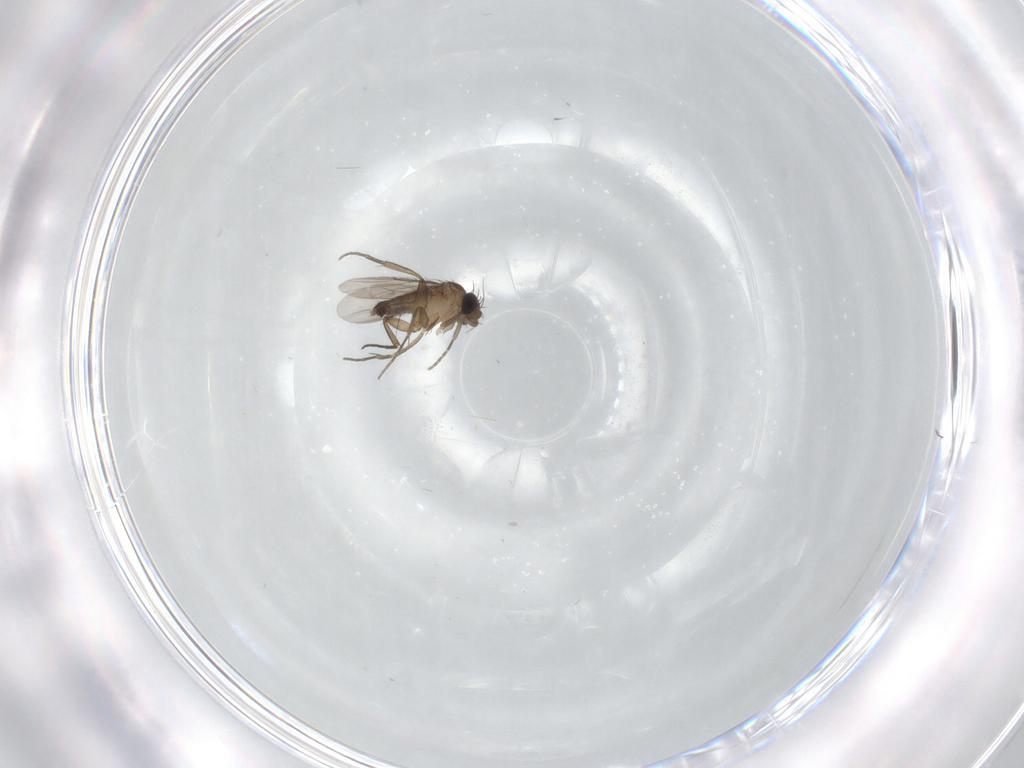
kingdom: Animalia
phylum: Arthropoda
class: Insecta
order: Diptera
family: Phoridae
